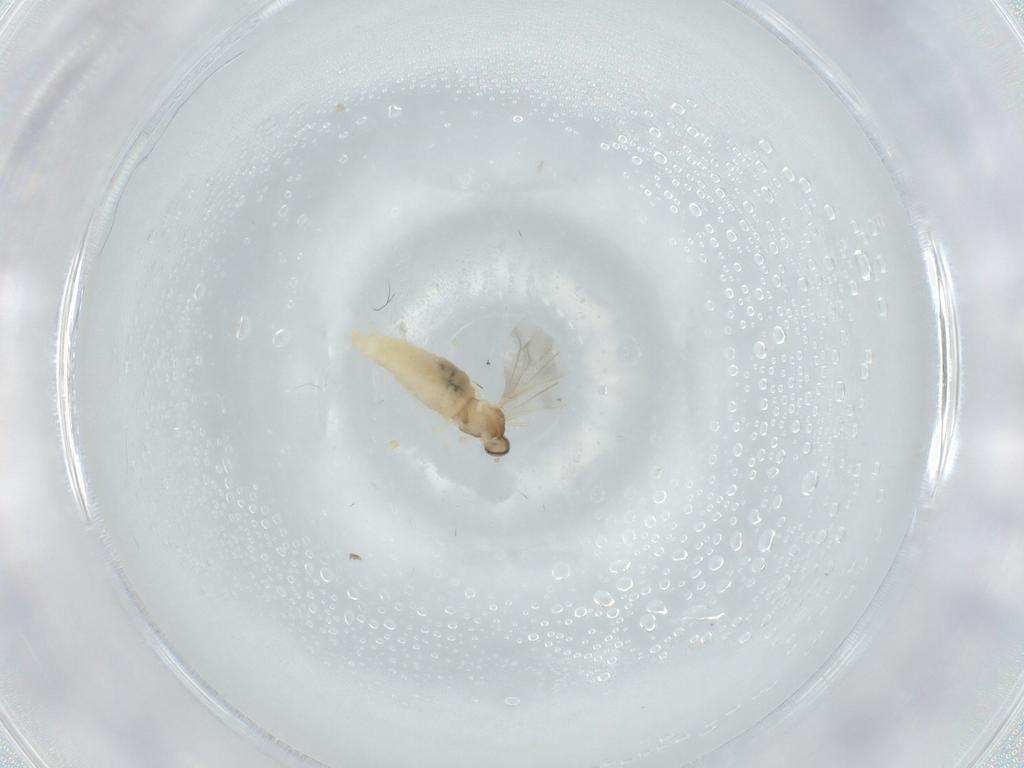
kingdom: Animalia
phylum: Arthropoda
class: Insecta
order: Diptera
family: Cecidomyiidae
